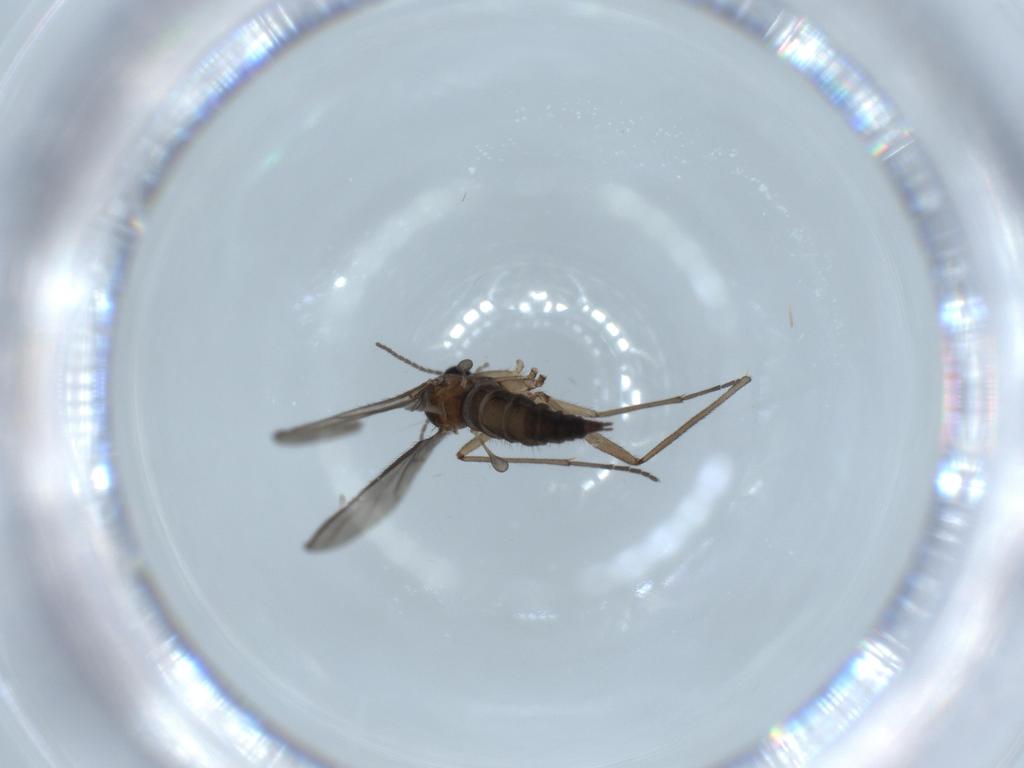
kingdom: Animalia
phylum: Arthropoda
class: Insecta
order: Diptera
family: Sciaridae
